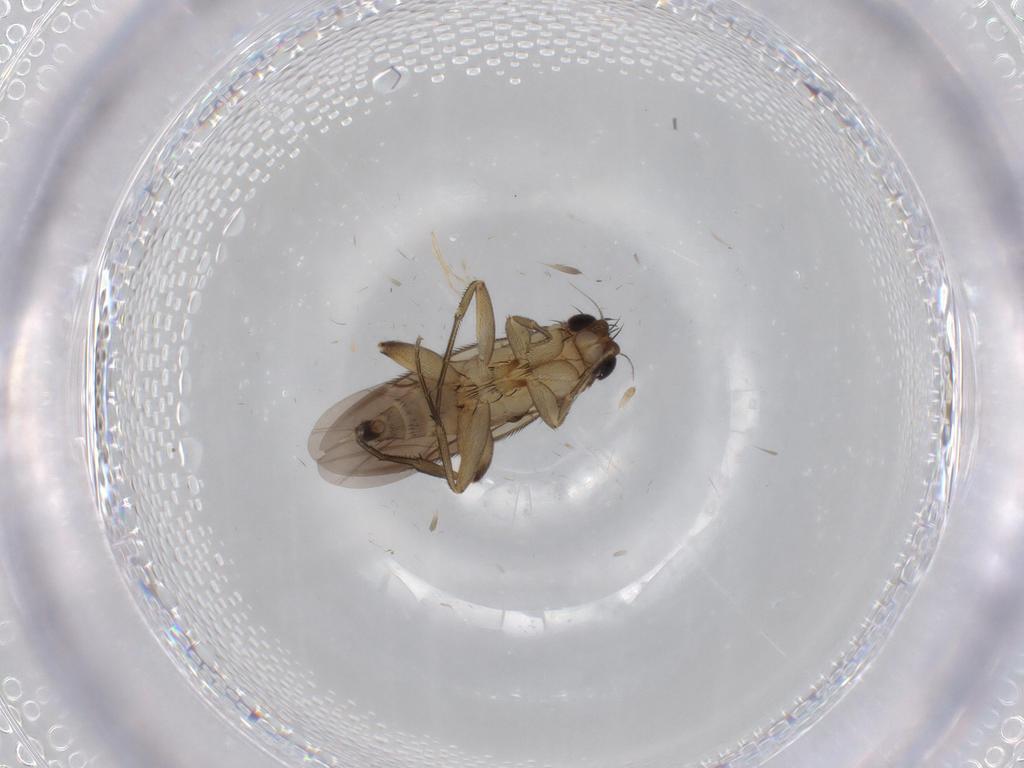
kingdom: Animalia
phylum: Arthropoda
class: Insecta
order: Diptera
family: Phoridae
